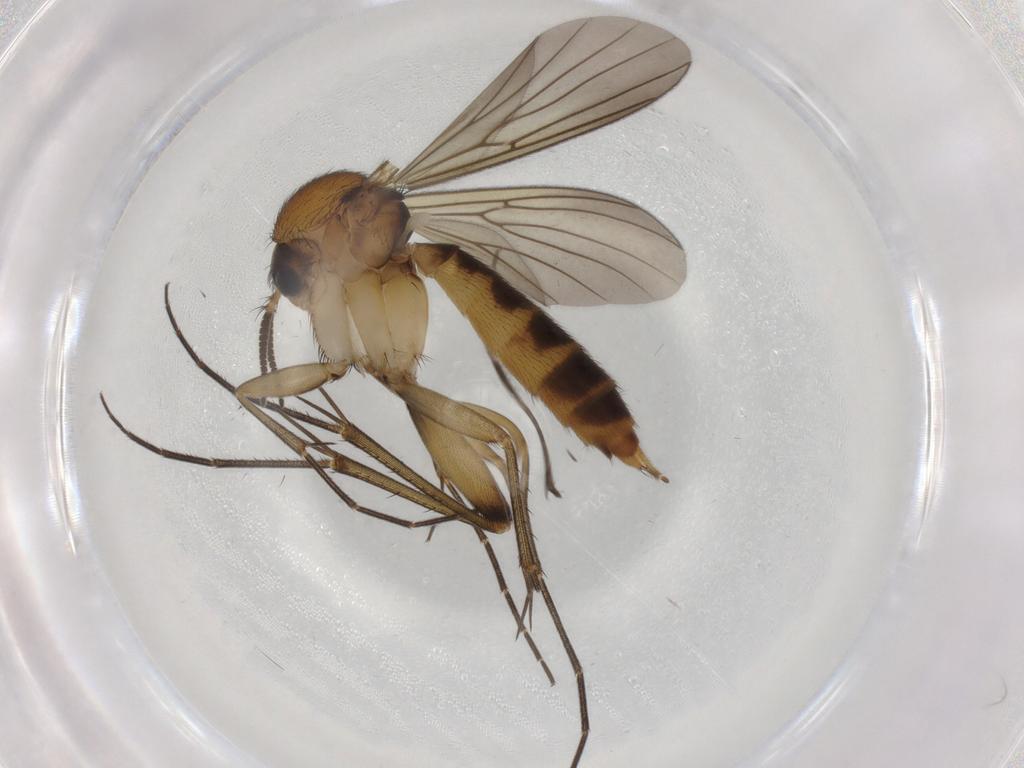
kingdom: Animalia
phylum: Arthropoda
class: Insecta
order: Diptera
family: Mycetophilidae
